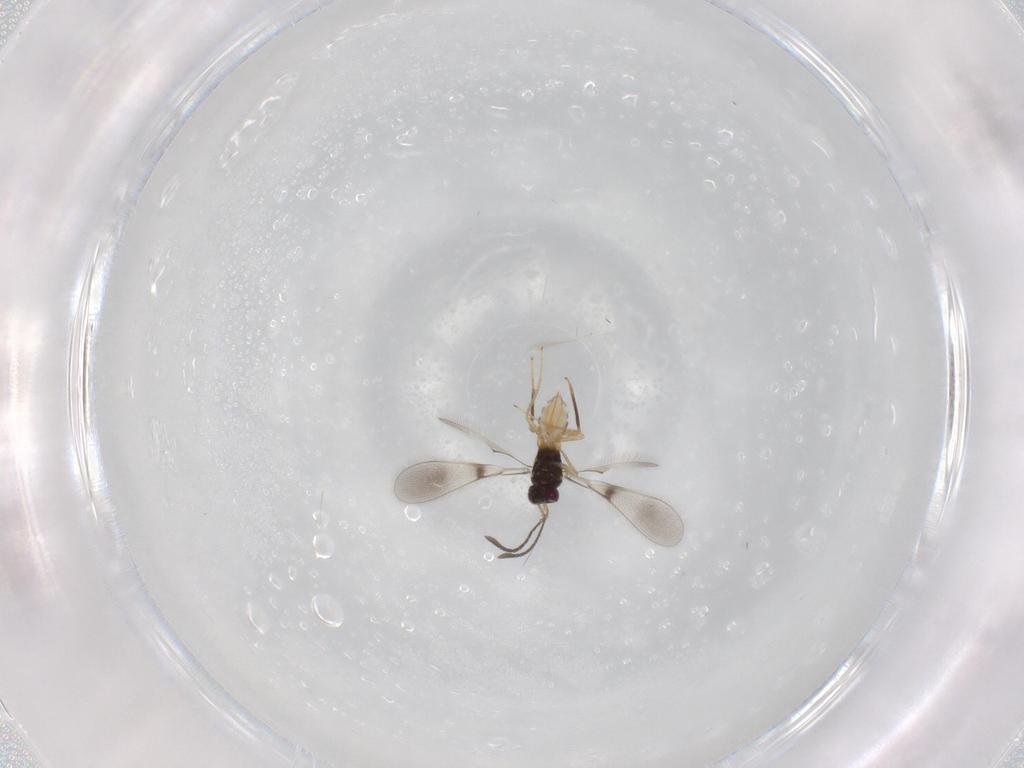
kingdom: Animalia
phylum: Arthropoda
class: Insecta
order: Hymenoptera
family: Mymaridae
